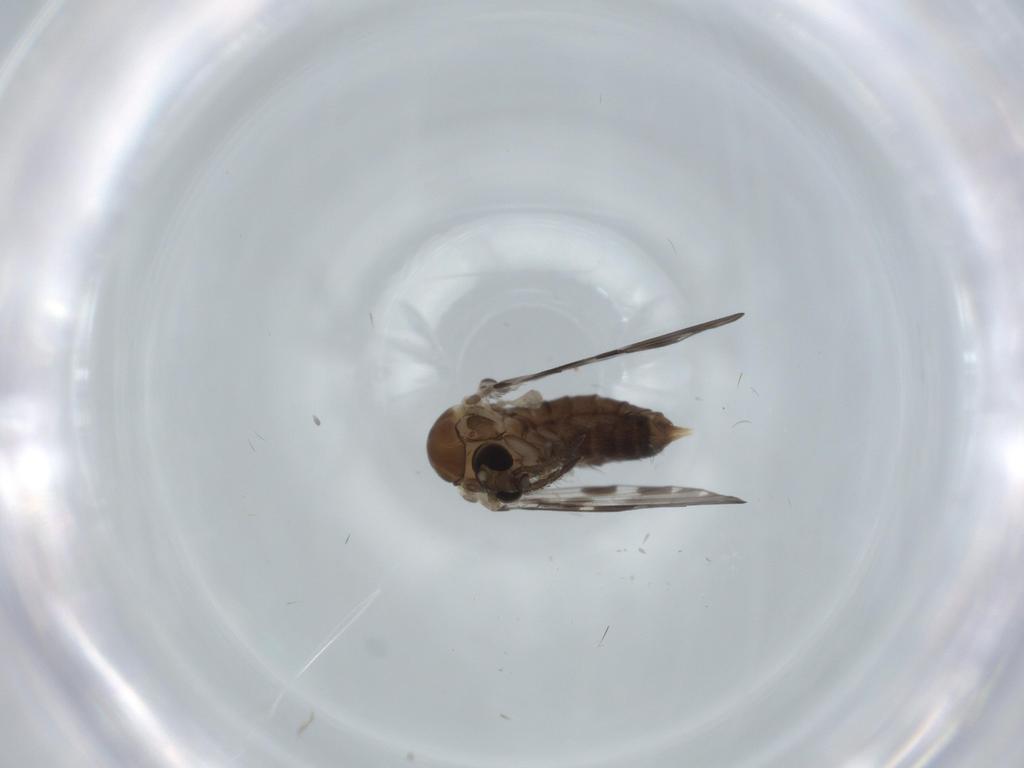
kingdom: Animalia
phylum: Arthropoda
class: Insecta
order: Diptera
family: Psychodidae
